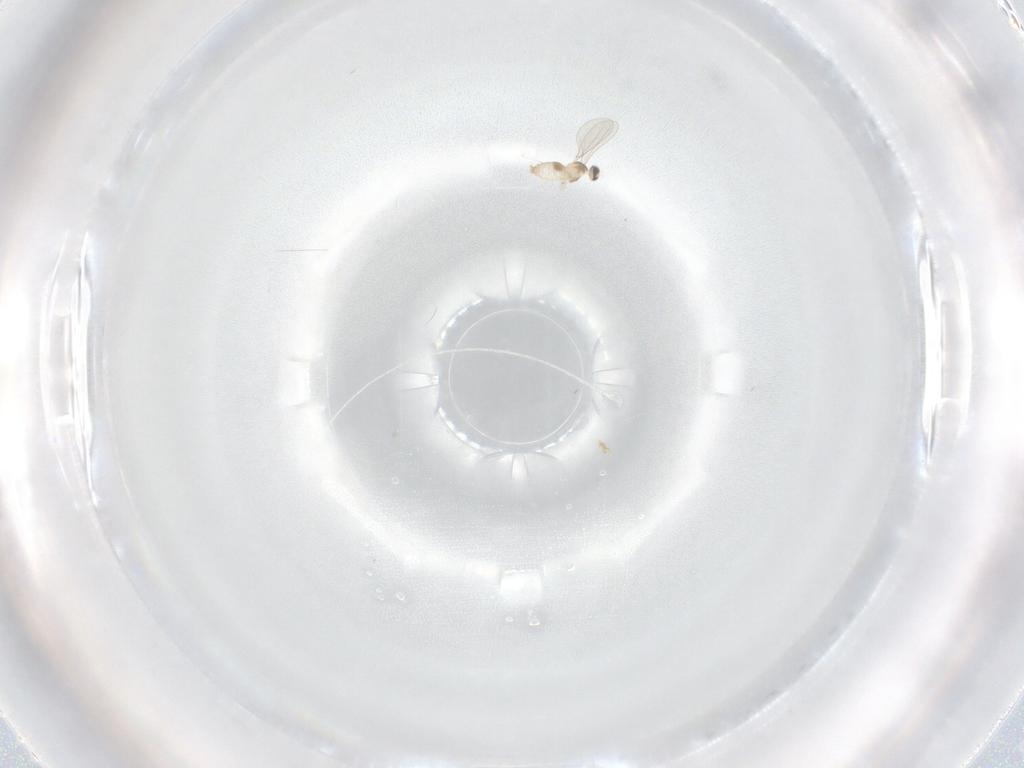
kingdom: Animalia
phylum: Arthropoda
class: Insecta
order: Diptera
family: Cecidomyiidae
